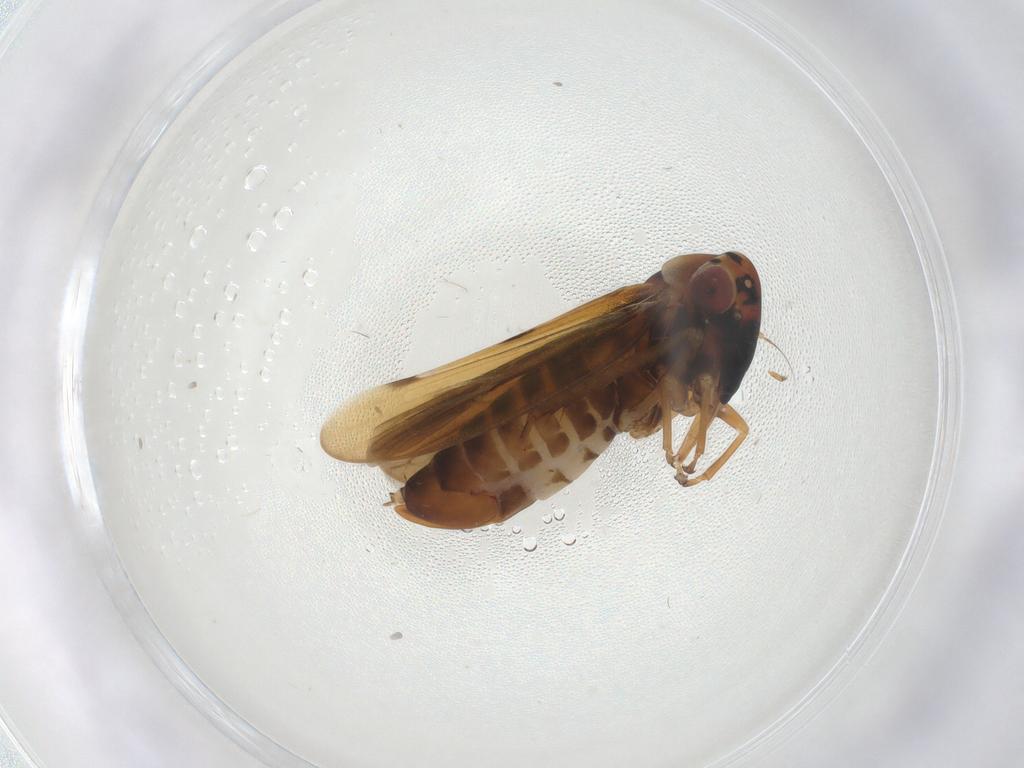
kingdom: Animalia
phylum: Arthropoda
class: Insecta
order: Hemiptera
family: Cicadellidae
